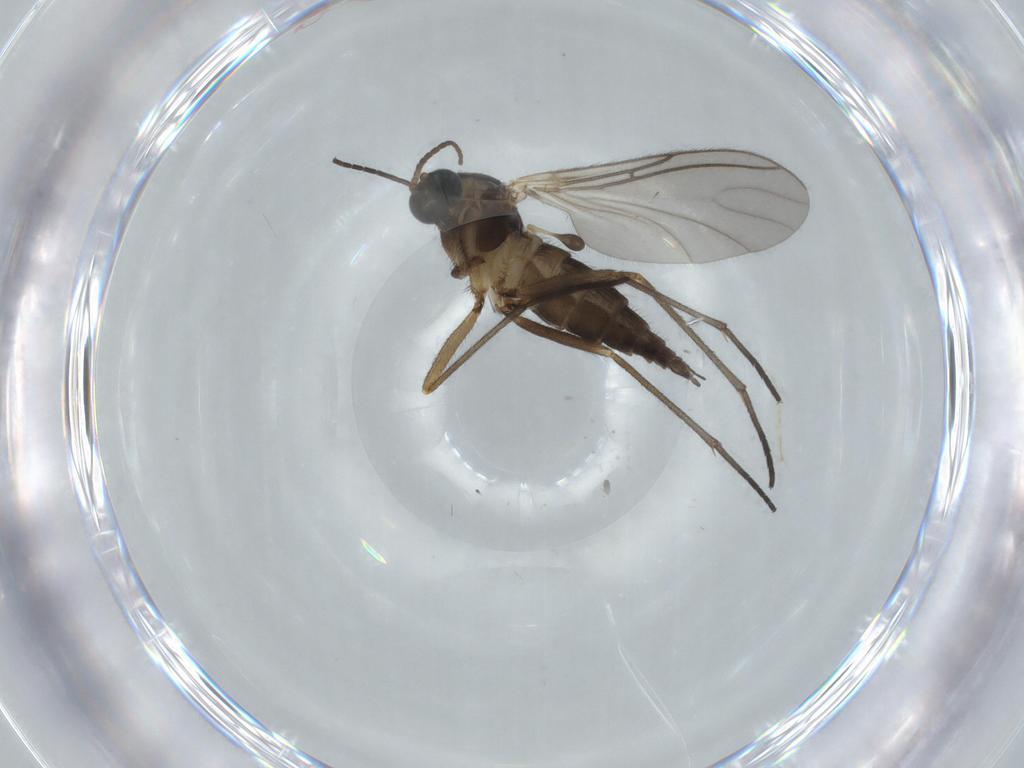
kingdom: Animalia
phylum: Arthropoda
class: Insecta
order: Diptera
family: Sciaridae
